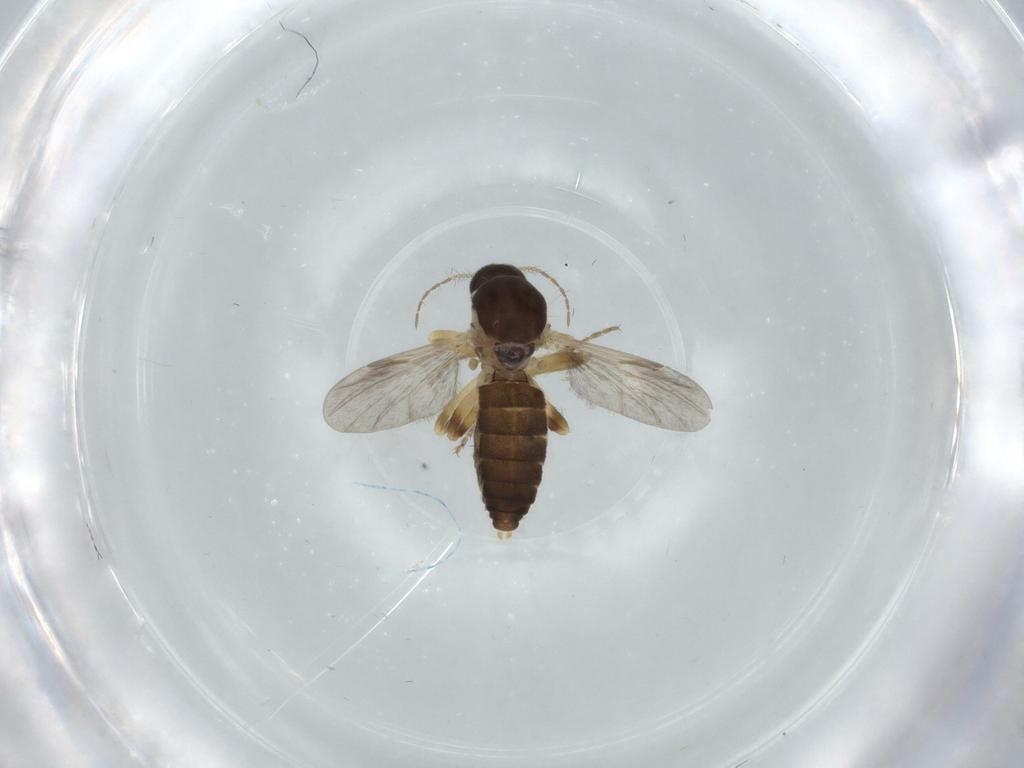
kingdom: Animalia
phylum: Arthropoda
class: Insecta
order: Diptera
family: Ceratopogonidae
